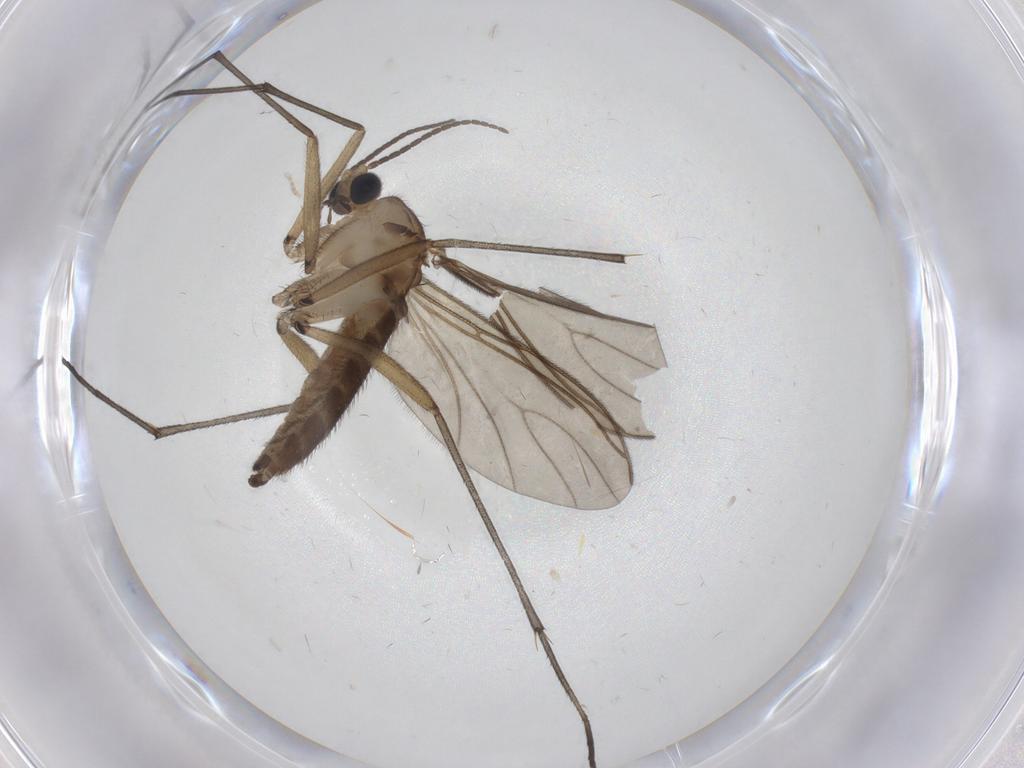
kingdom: Animalia
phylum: Arthropoda
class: Insecta
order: Diptera
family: Sciaridae
